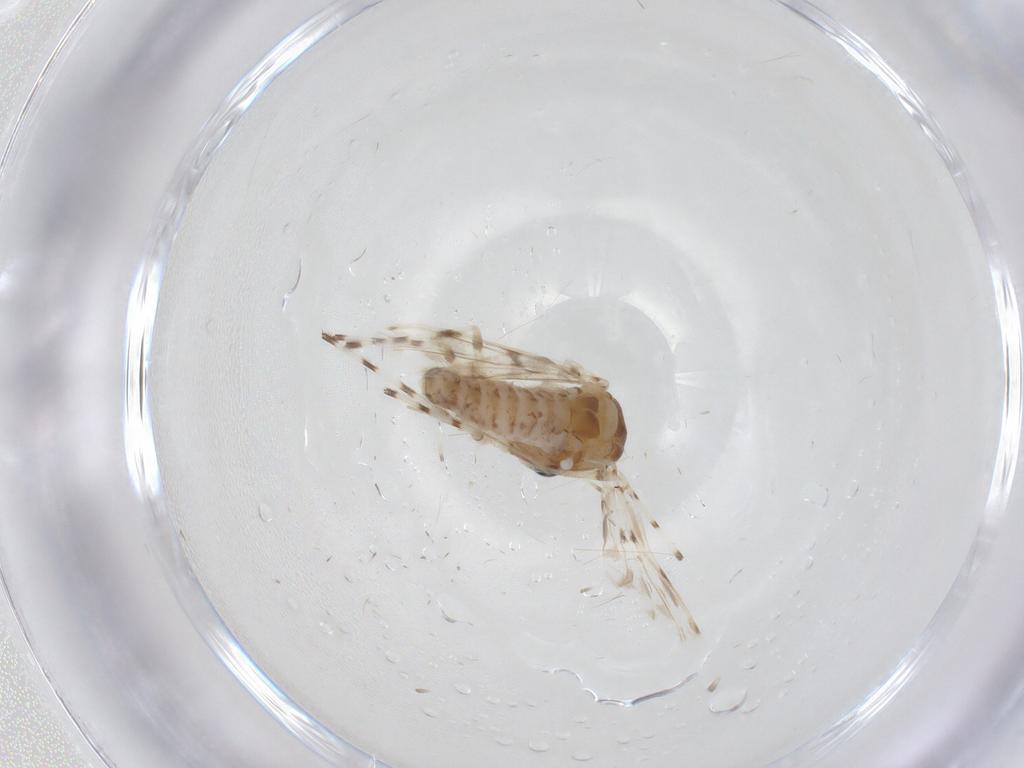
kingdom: Animalia
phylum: Arthropoda
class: Insecta
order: Diptera
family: Chironomidae
